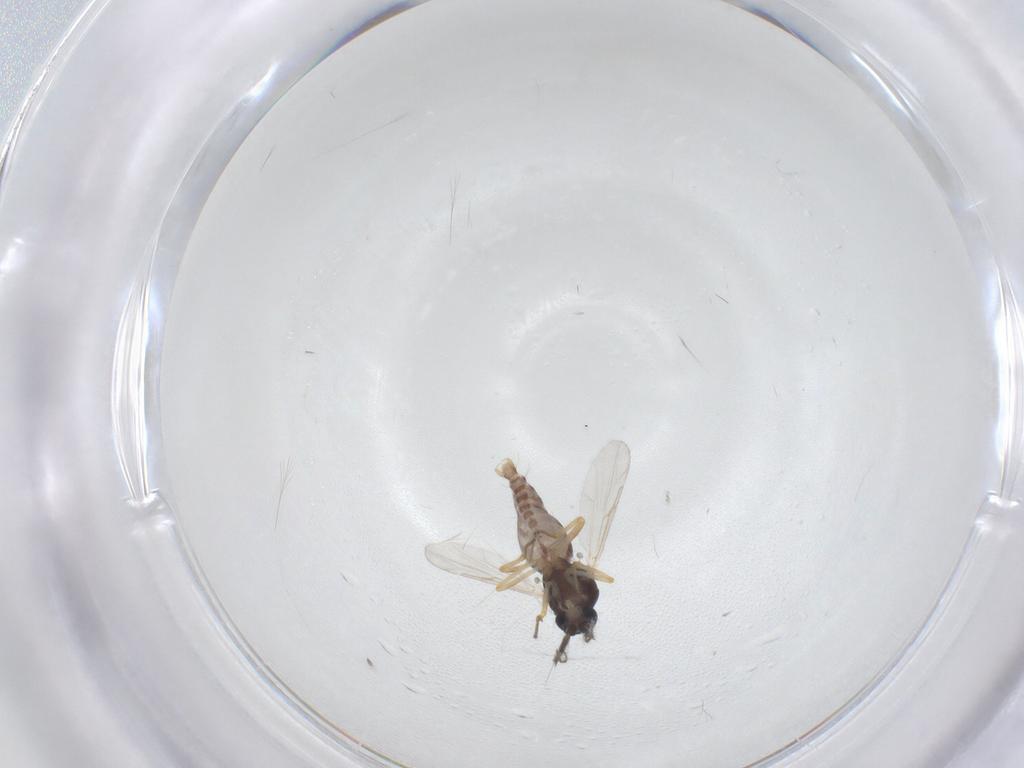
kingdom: Animalia
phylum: Arthropoda
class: Insecta
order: Diptera
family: Ceratopogonidae
